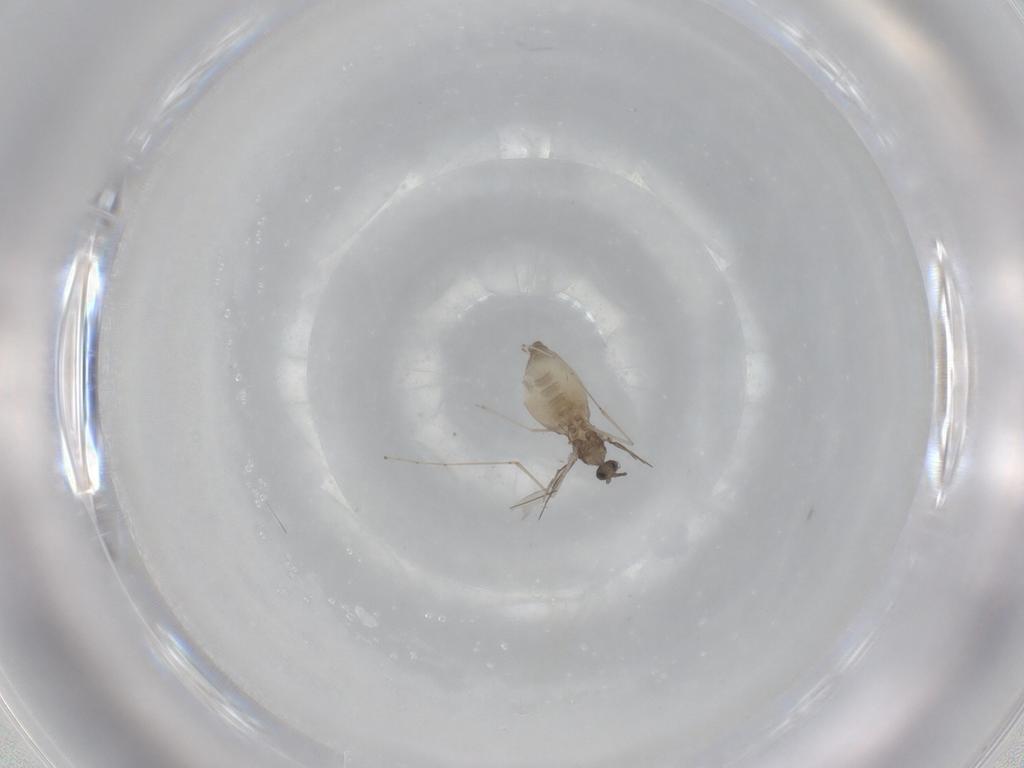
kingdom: Animalia
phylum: Arthropoda
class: Insecta
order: Diptera
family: Cecidomyiidae
